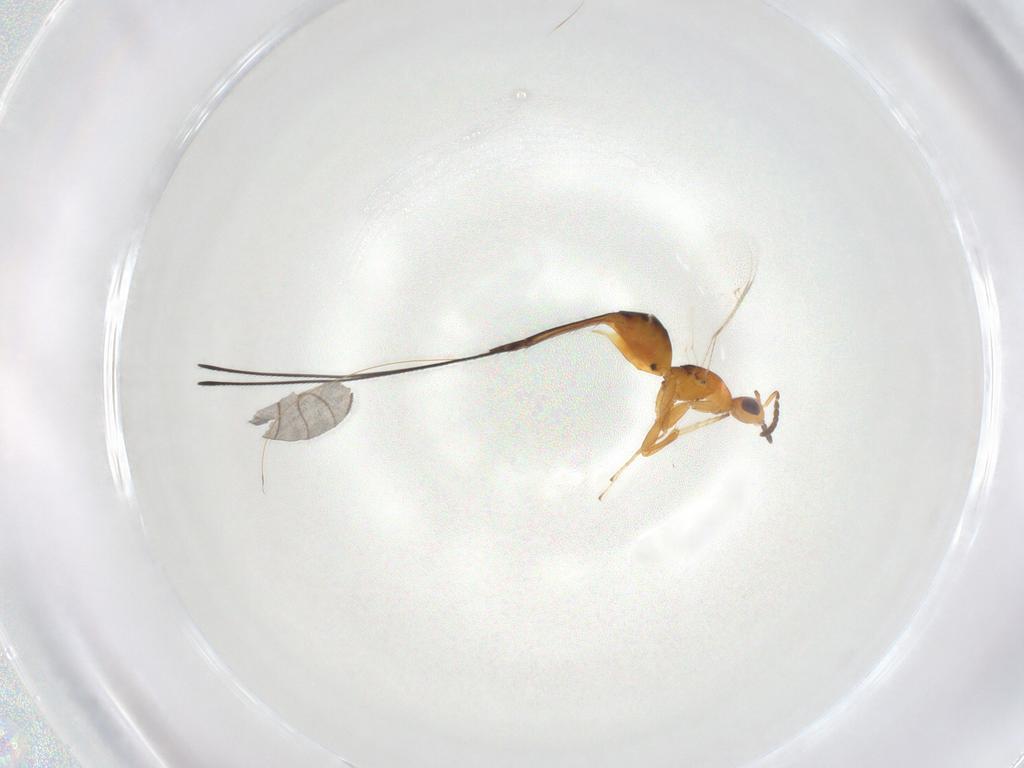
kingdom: Animalia
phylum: Arthropoda
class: Insecta
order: Hymenoptera
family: Pteromalidae
